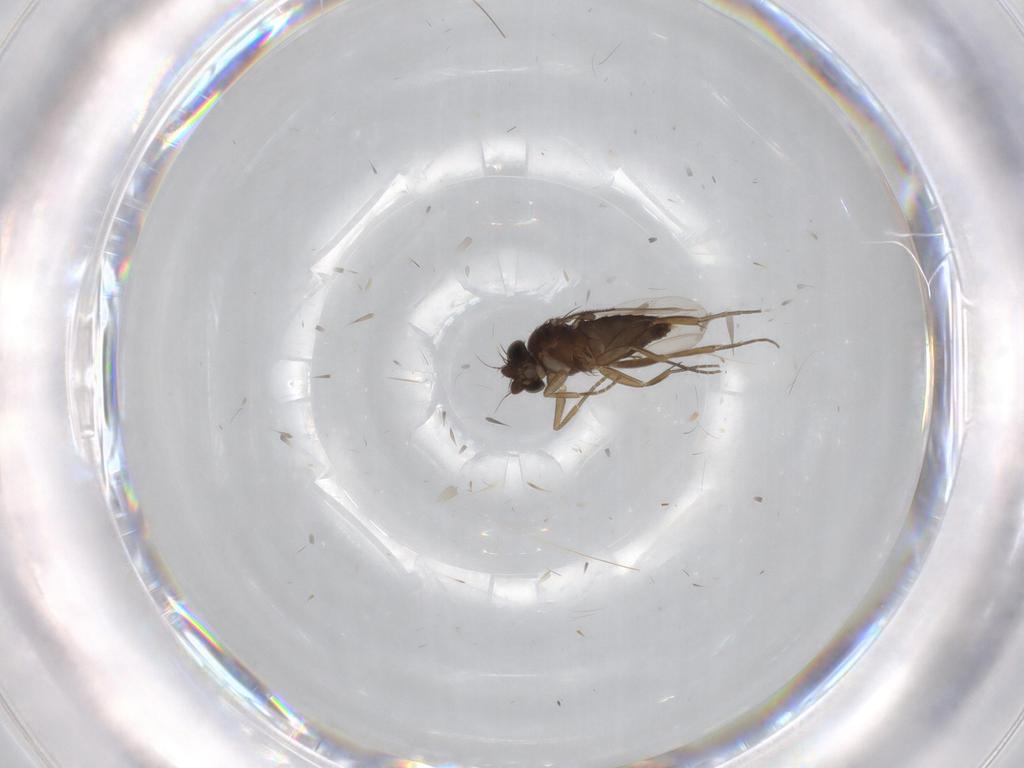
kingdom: Animalia
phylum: Arthropoda
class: Insecta
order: Diptera
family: Phoridae
